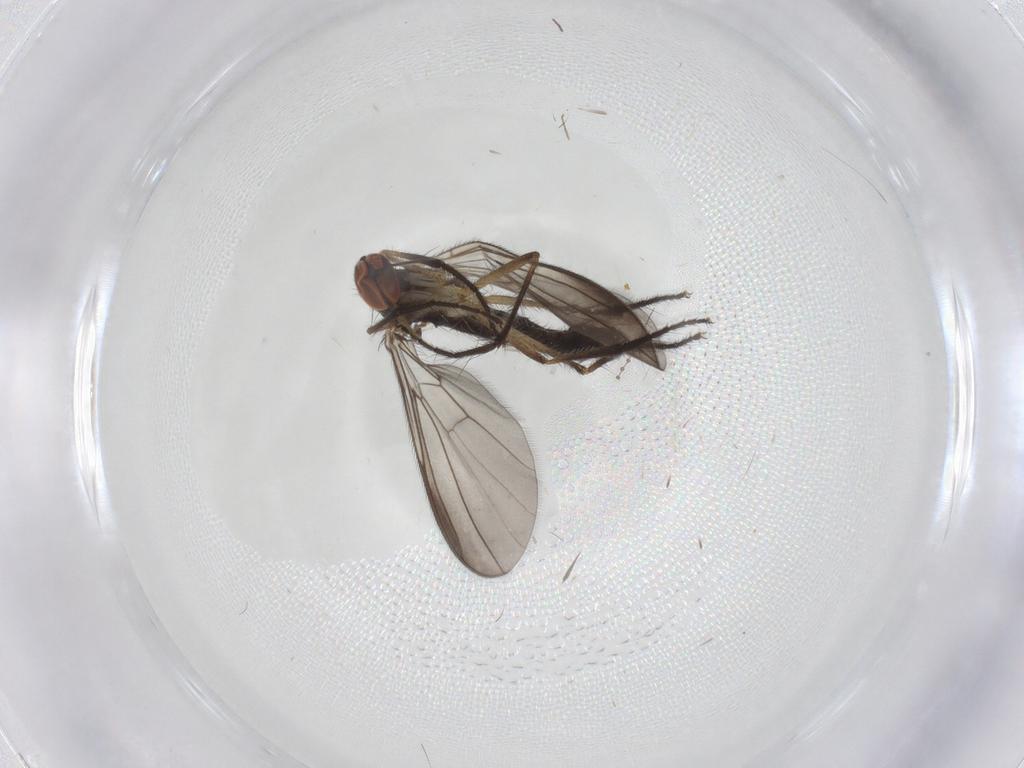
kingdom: Animalia
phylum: Arthropoda
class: Insecta
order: Diptera
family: Empididae
